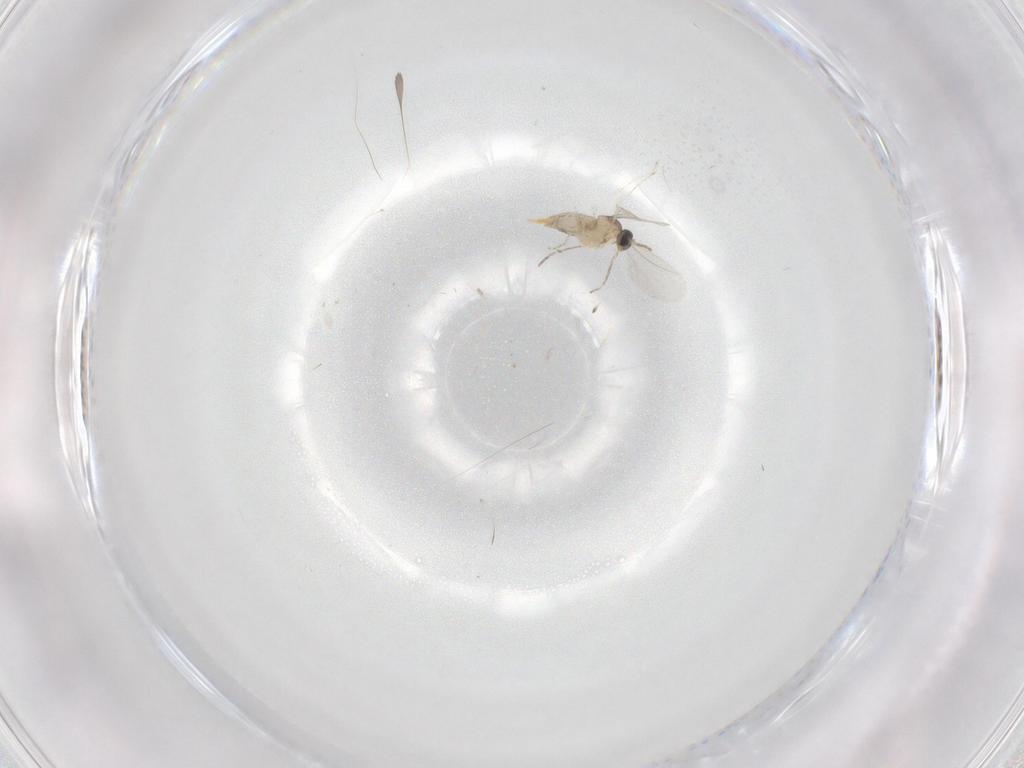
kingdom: Animalia
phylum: Arthropoda
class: Insecta
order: Diptera
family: Cecidomyiidae
